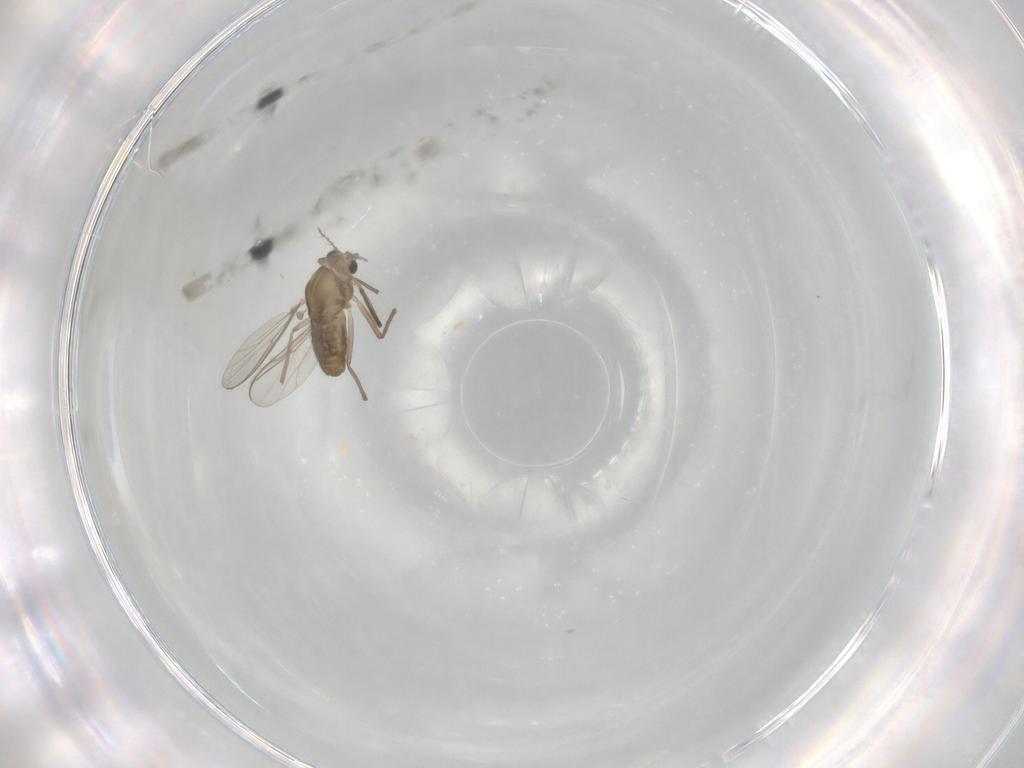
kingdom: Animalia
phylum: Arthropoda
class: Insecta
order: Diptera
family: Chironomidae
